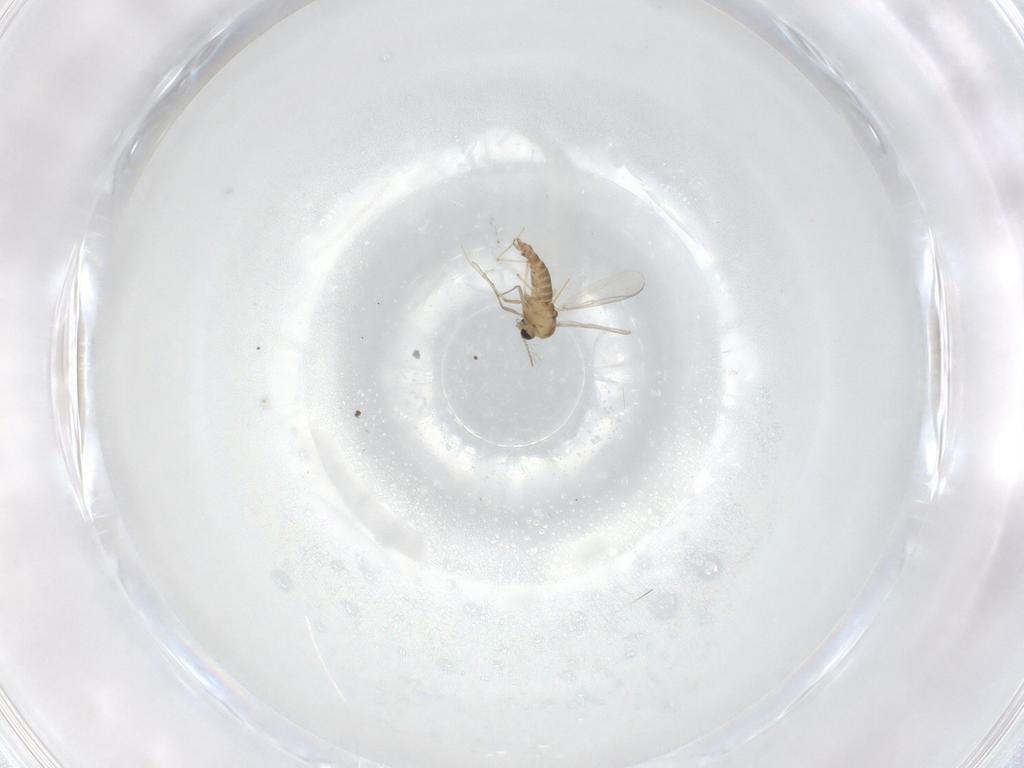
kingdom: Animalia
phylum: Arthropoda
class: Insecta
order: Diptera
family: Chironomidae
